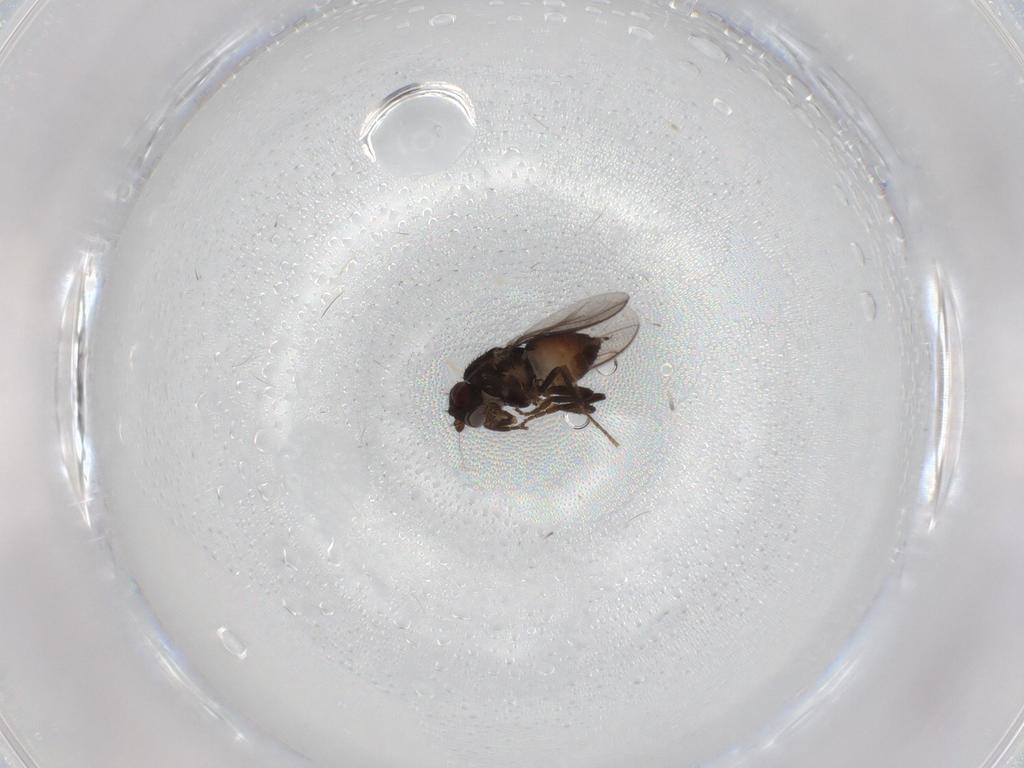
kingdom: Animalia
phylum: Arthropoda
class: Insecta
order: Diptera
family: Sphaeroceridae
